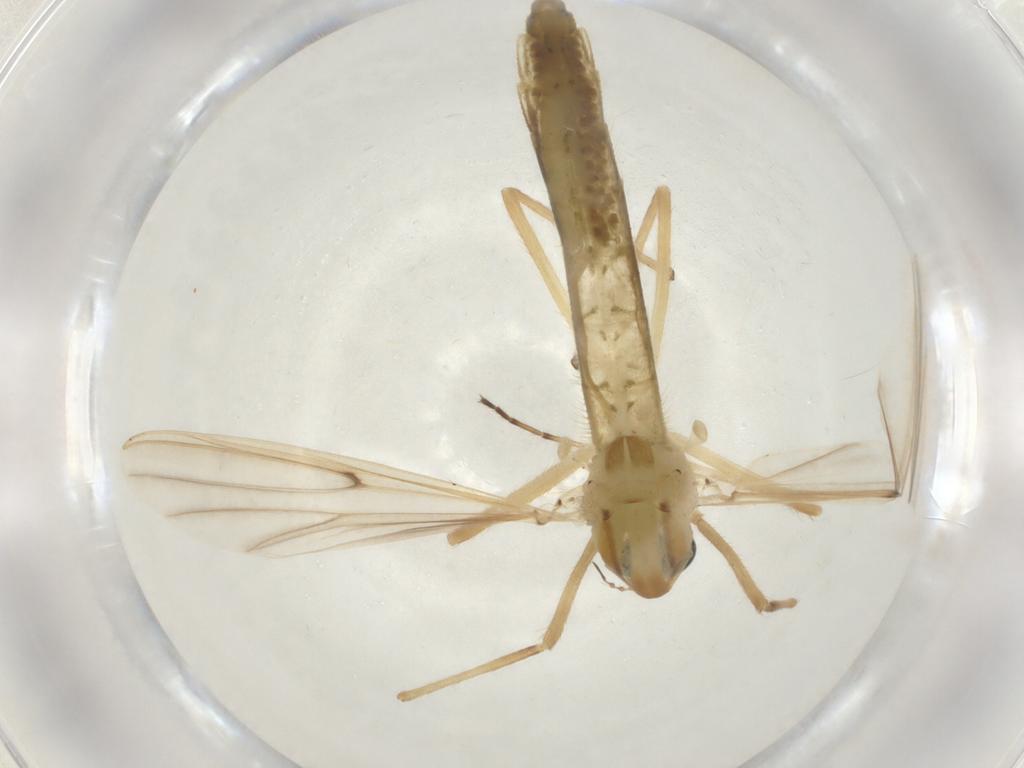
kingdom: Animalia
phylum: Arthropoda
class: Insecta
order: Diptera
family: Chironomidae
